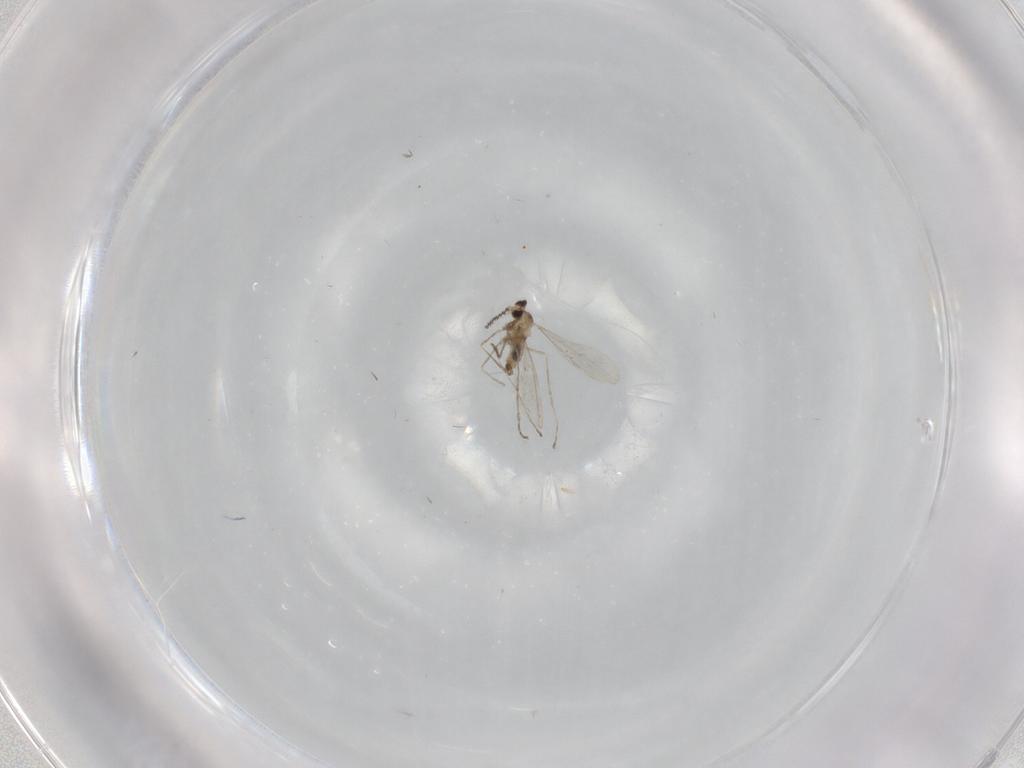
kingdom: Animalia
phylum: Arthropoda
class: Insecta
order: Diptera
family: Cecidomyiidae
